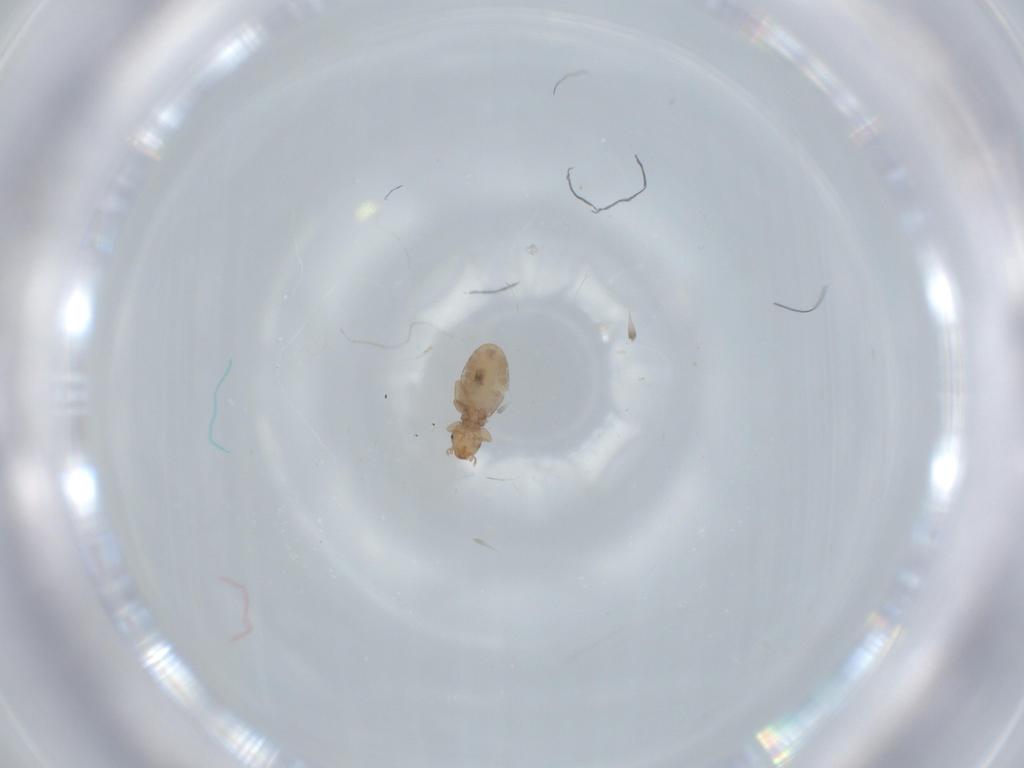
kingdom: Animalia
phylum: Arthropoda
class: Insecta
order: Psocodea
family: Liposcelididae
